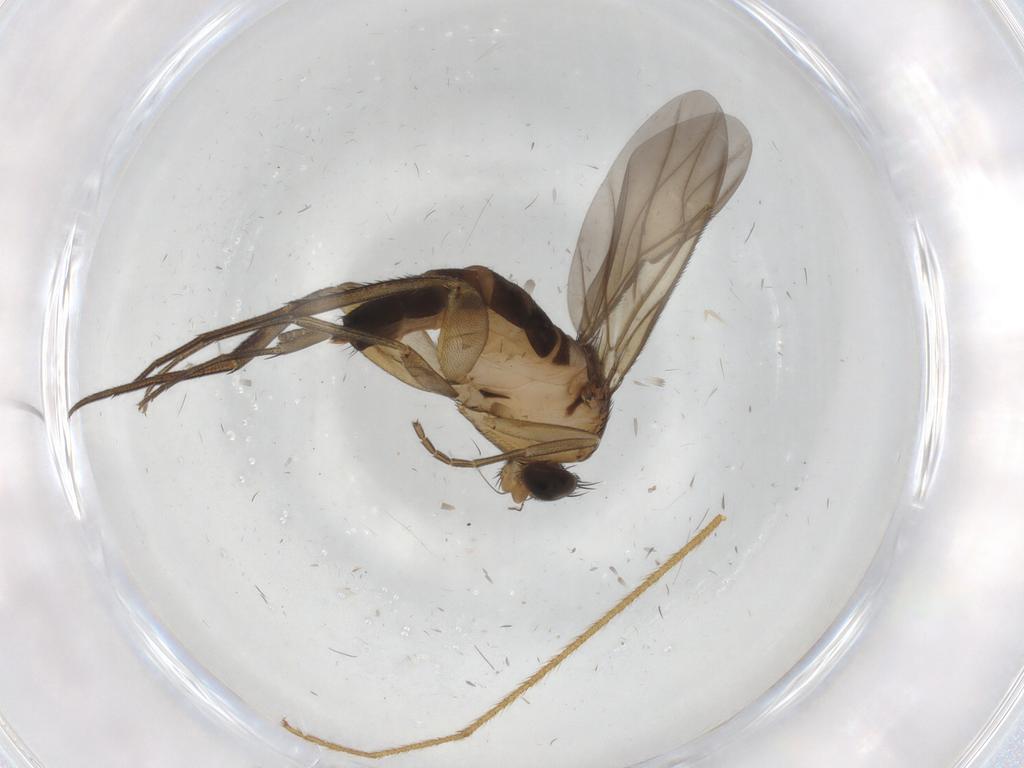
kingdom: Animalia
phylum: Arthropoda
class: Insecta
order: Diptera
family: Limoniidae
